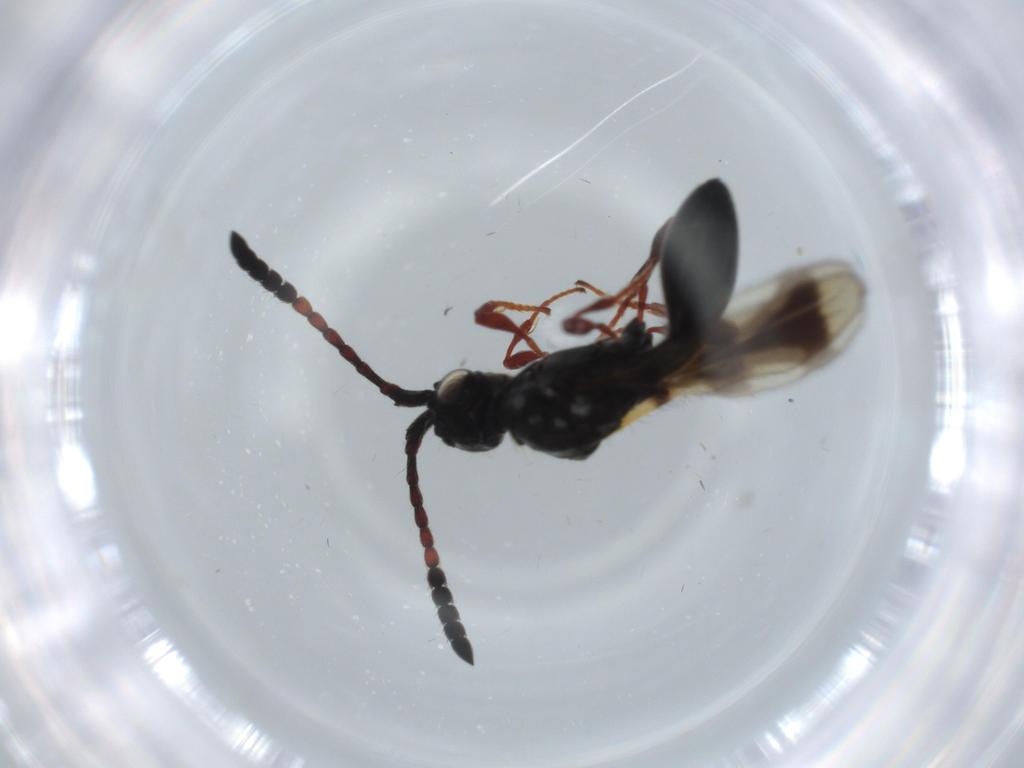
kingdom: Animalia
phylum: Arthropoda
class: Insecta
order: Hymenoptera
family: Diapriidae
